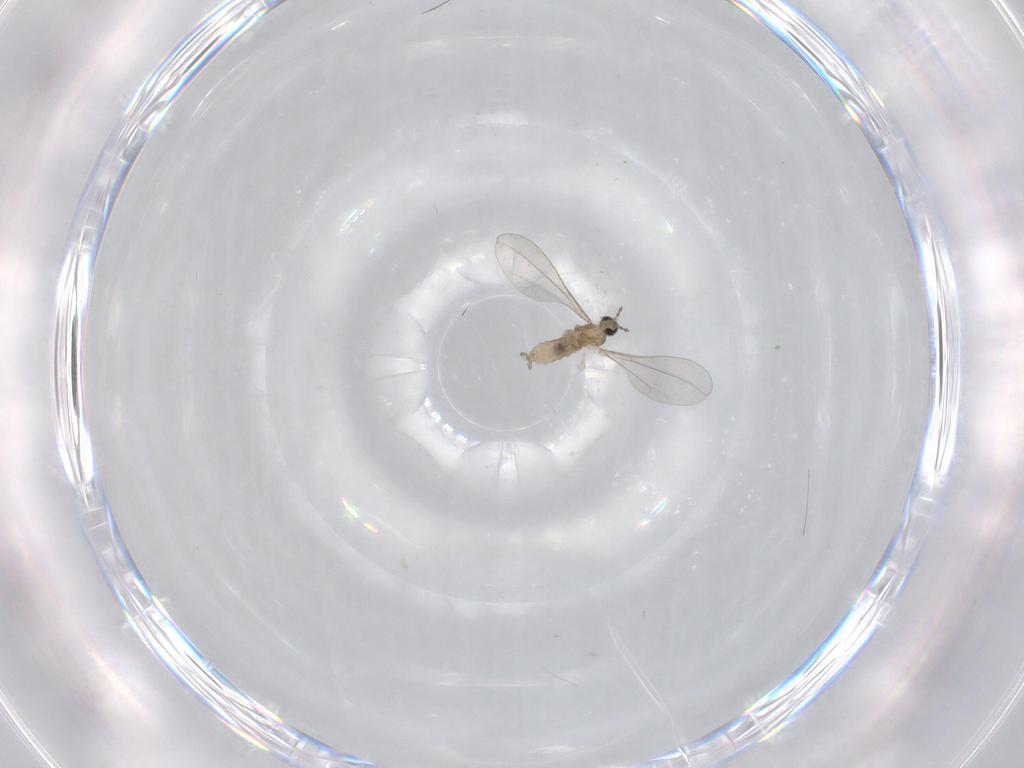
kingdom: Animalia
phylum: Arthropoda
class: Insecta
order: Diptera
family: Cecidomyiidae
